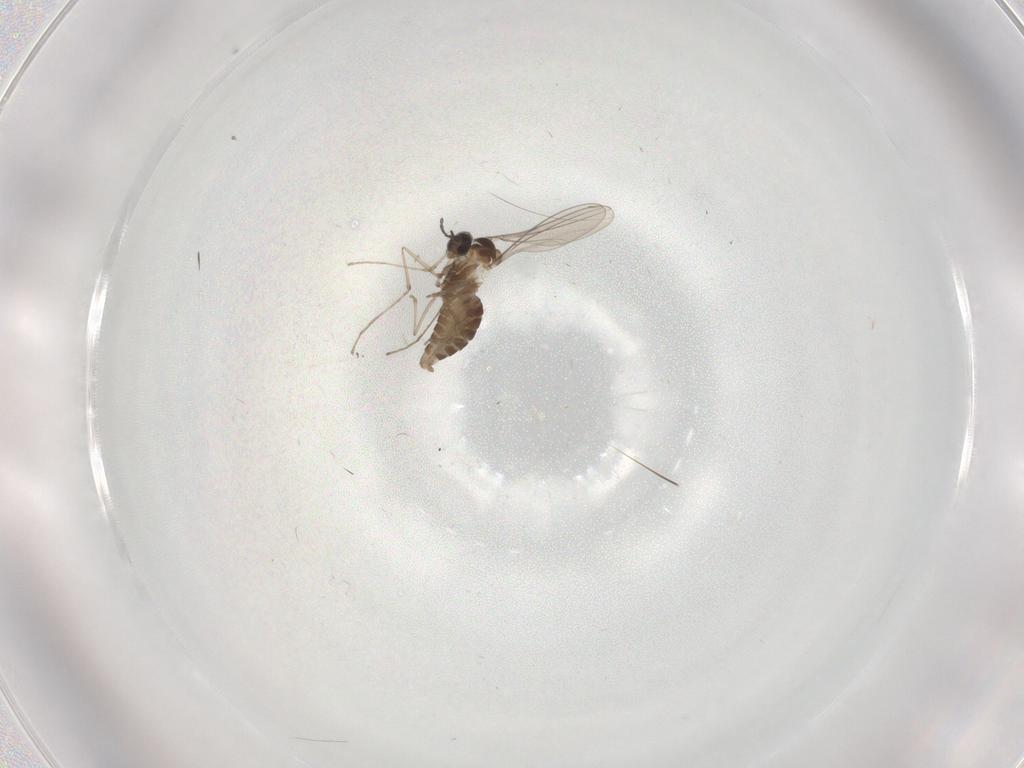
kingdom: Animalia
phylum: Arthropoda
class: Insecta
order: Diptera
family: Cecidomyiidae
